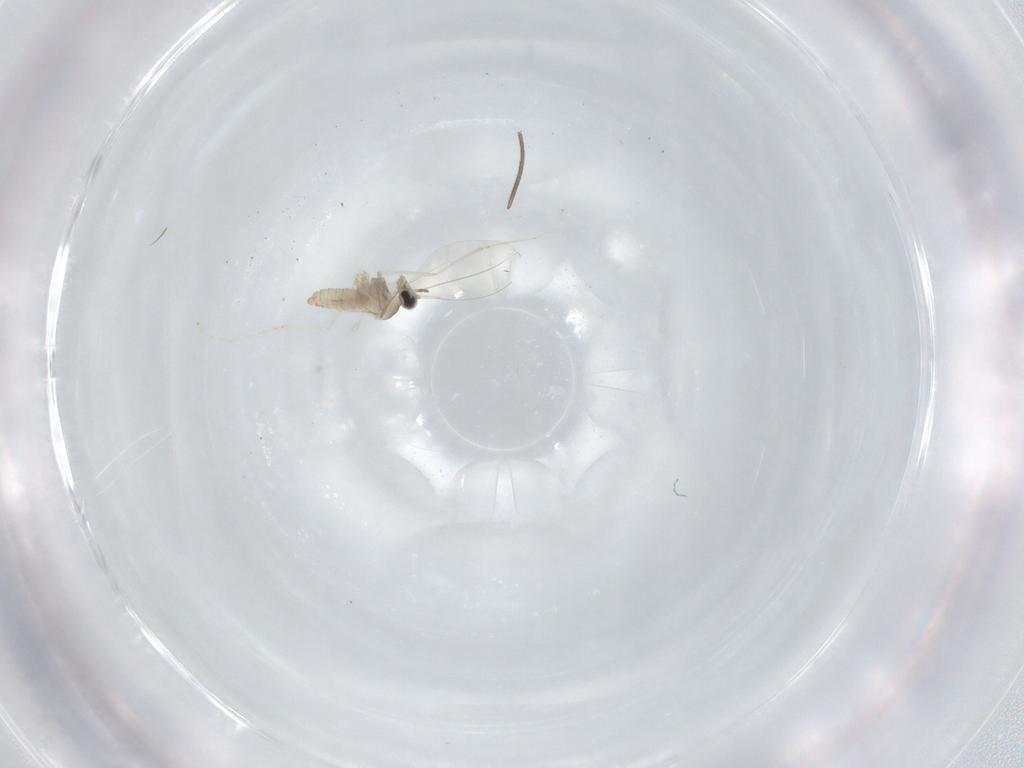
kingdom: Animalia
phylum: Arthropoda
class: Insecta
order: Diptera
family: Cecidomyiidae
